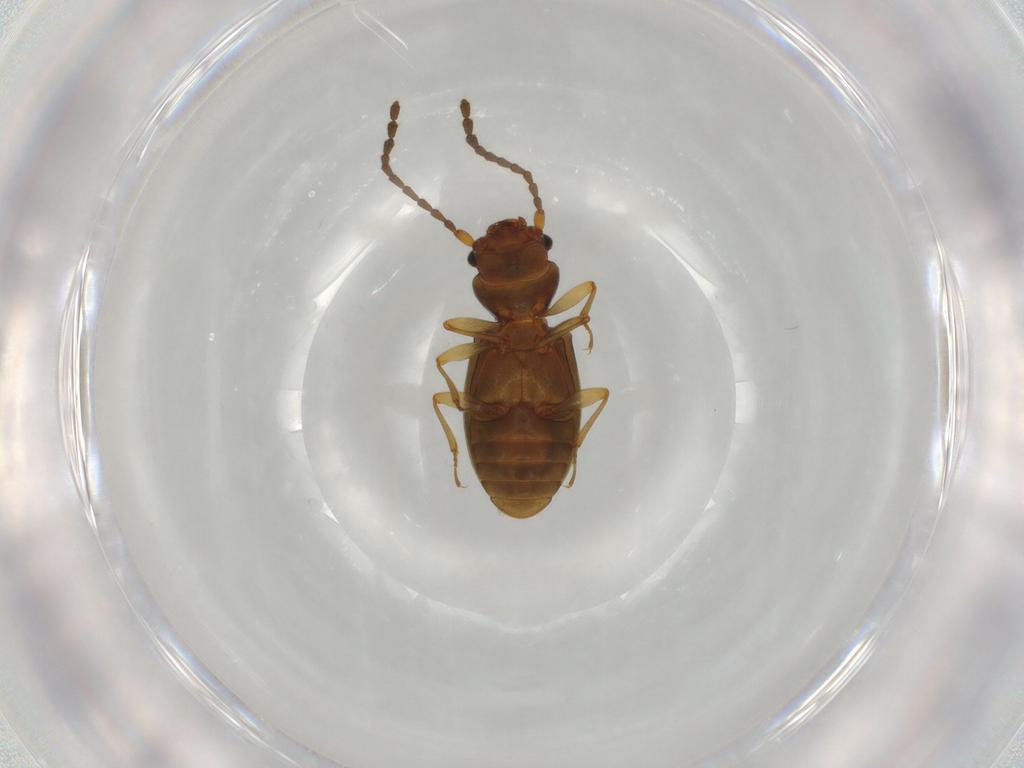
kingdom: Animalia
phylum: Arthropoda
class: Insecta
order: Coleoptera
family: Laemophloeidae
